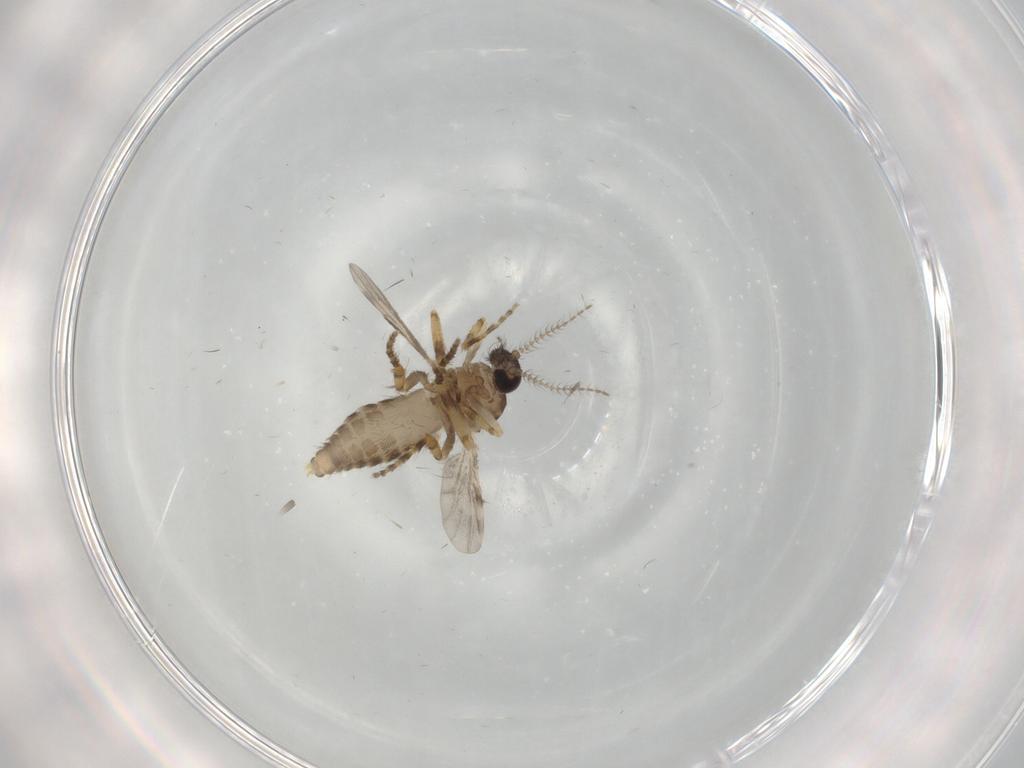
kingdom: Animalia
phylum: Arthropoda
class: Insecta
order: Diptera
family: Ceratopogonidae
